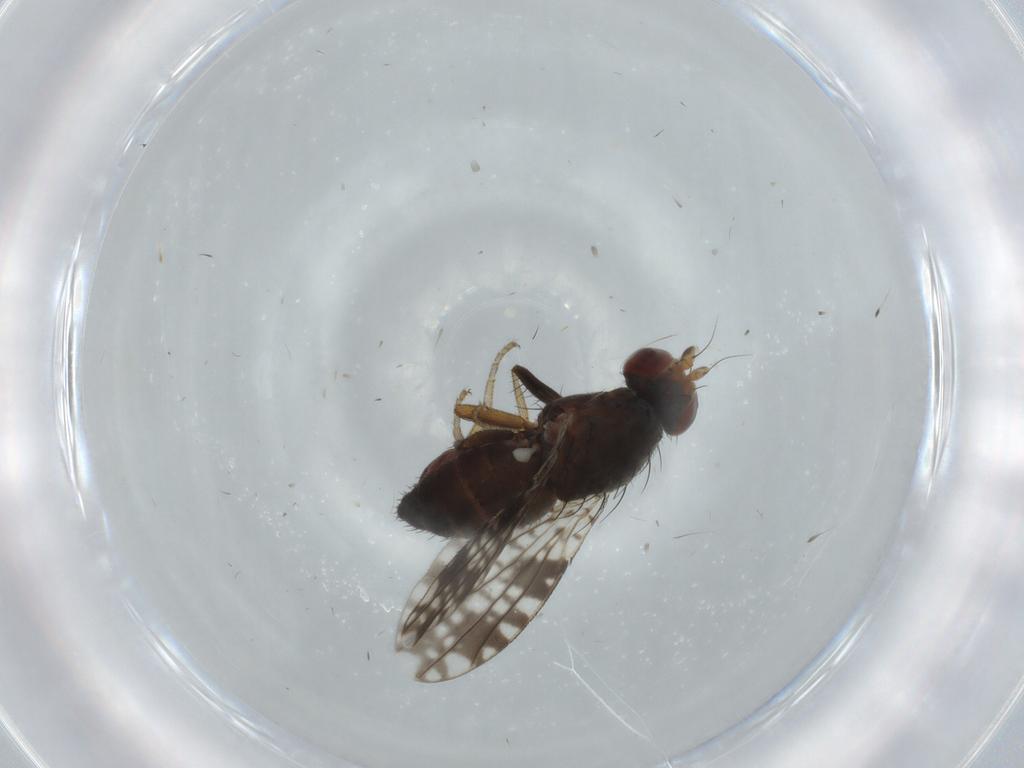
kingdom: Animalia
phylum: Arthropoda
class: Insecta
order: Diptera
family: Tephritidae
